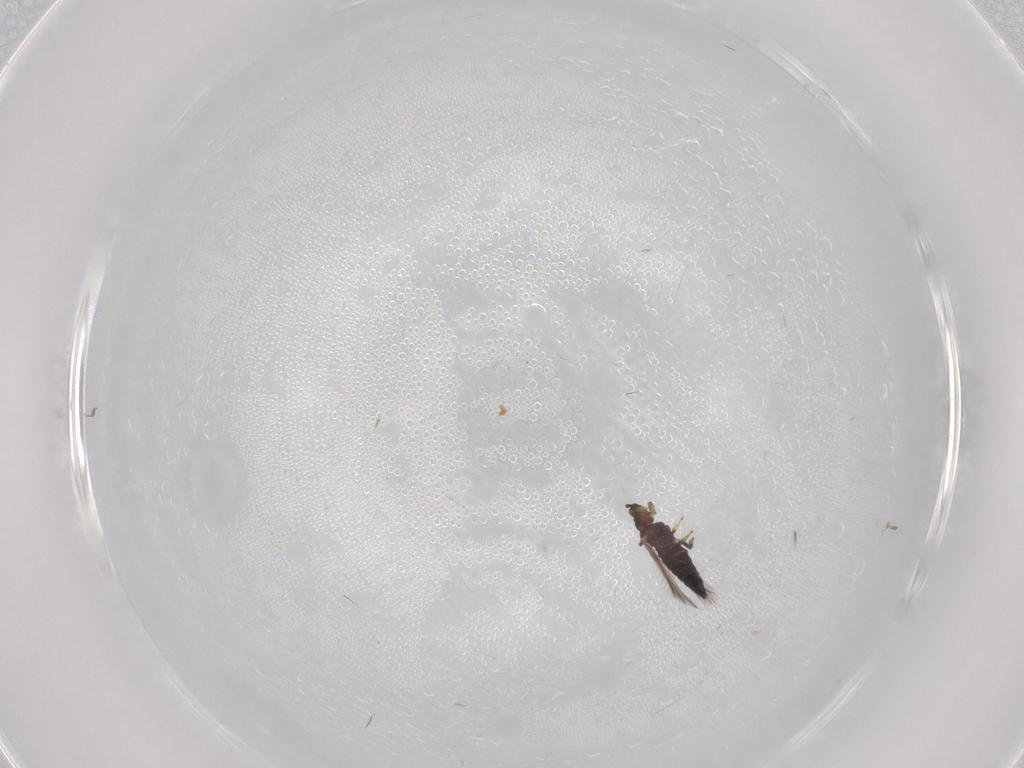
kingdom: Animalia
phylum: Arthropoda
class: Insecta
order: Thysanoptera
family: Thripidae
